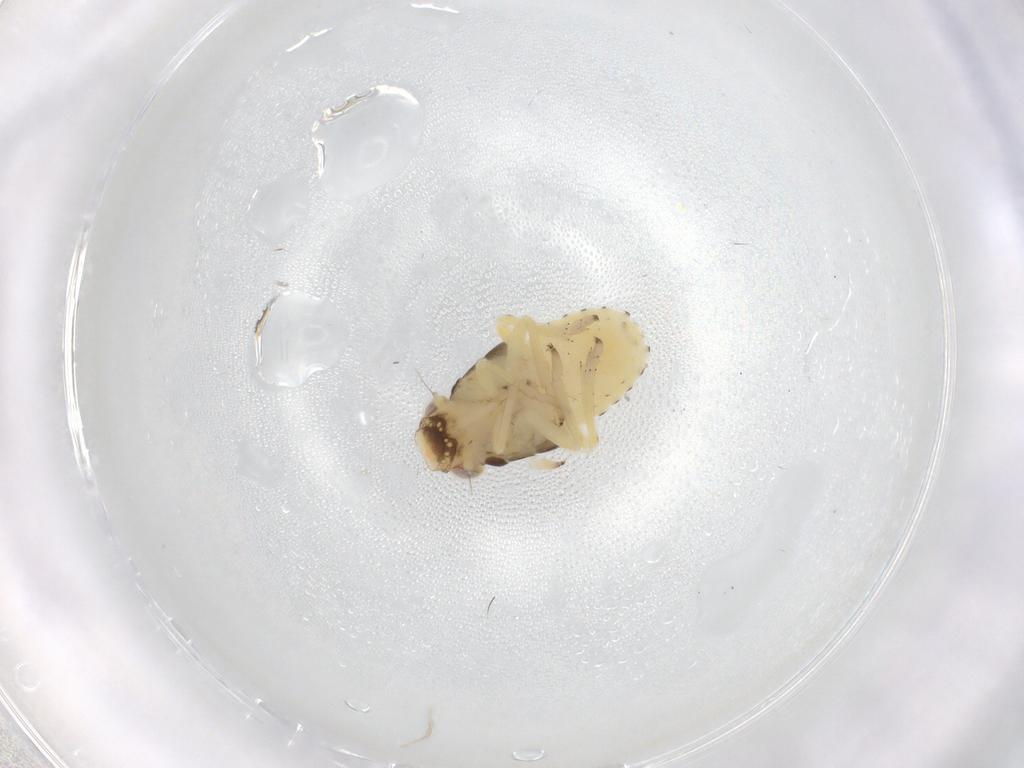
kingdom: Animalia
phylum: Arthropoda
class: Insecta
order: Hemiptera
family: Caliscelidae
